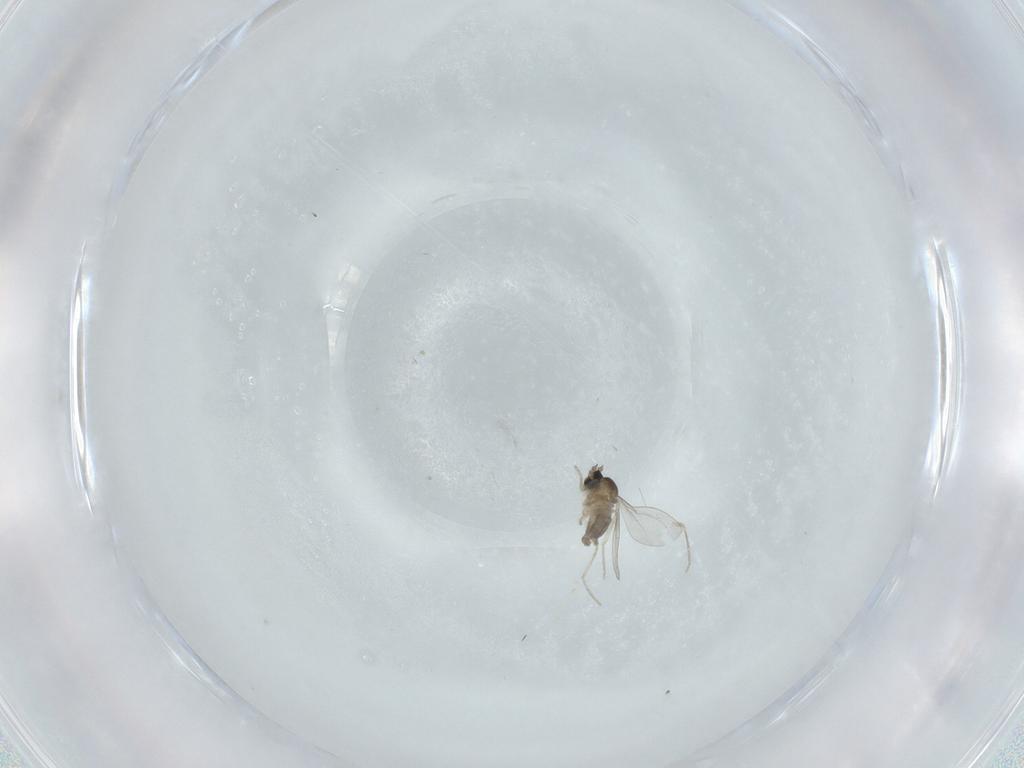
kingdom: Animalia
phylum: Arthropoda
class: Insecta
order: Diptera
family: Cecidomyiidae
